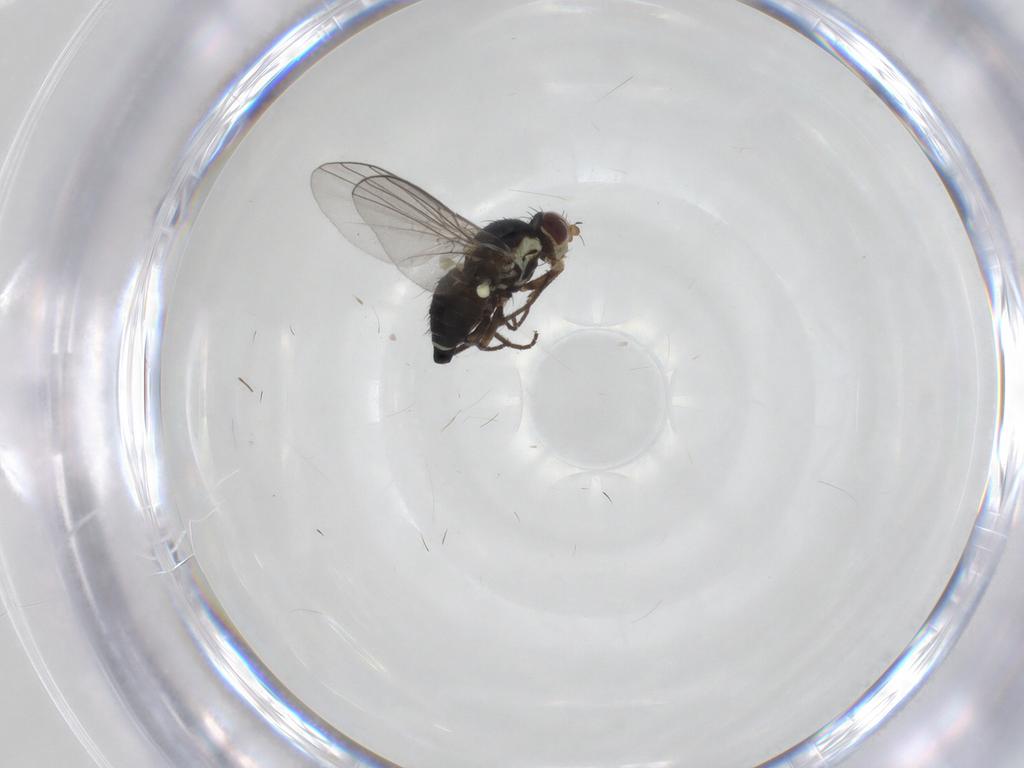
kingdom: Animalia
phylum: Arthropoda
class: Insecta
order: Diptera
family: Agromyzidae
